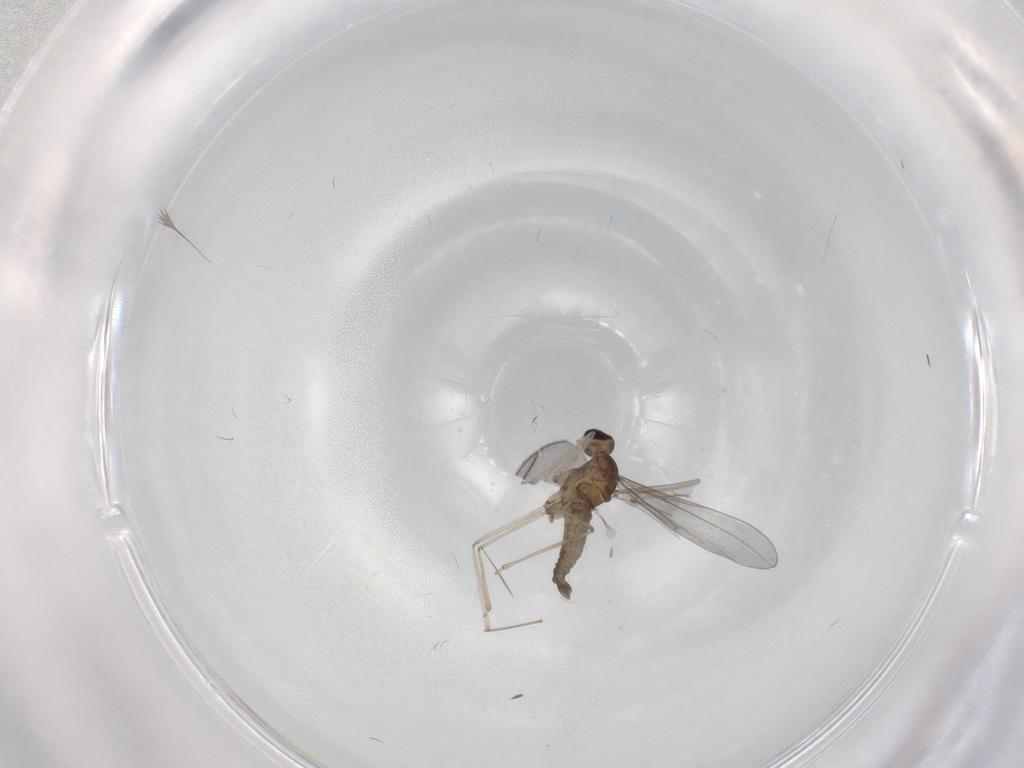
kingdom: Animalia
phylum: Arthropoda
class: Insecta
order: Diptera
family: Cecidomyiidae
